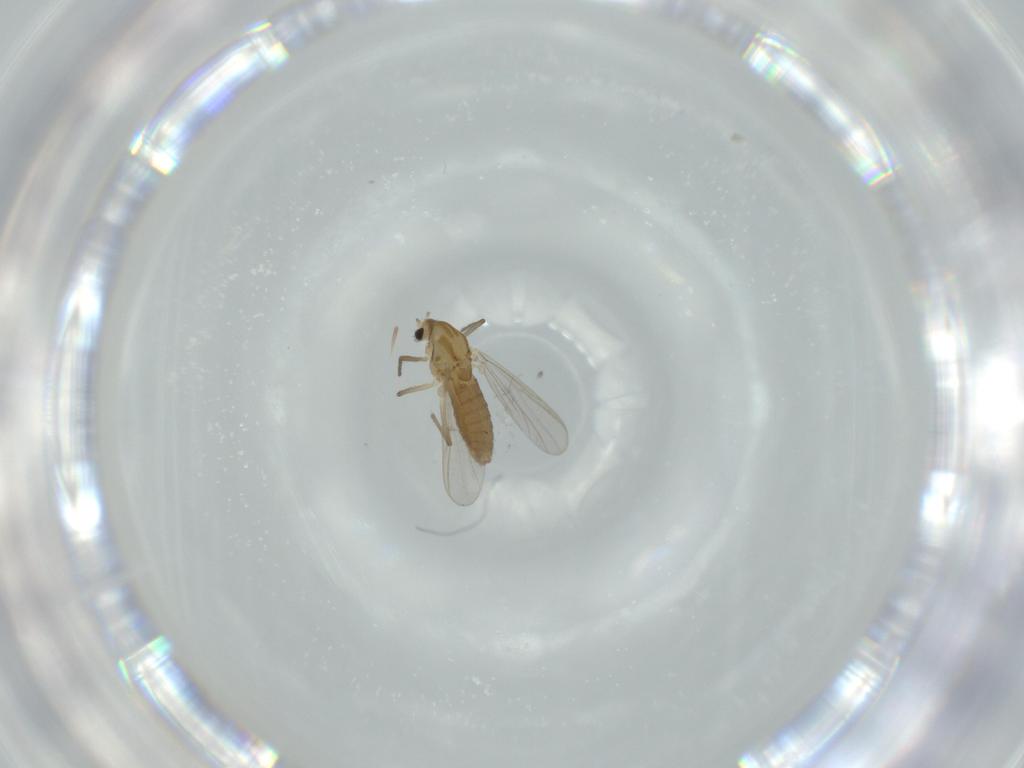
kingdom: Animalia
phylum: Arthropoda
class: Insecta
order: Diptera
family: Chironomidae
